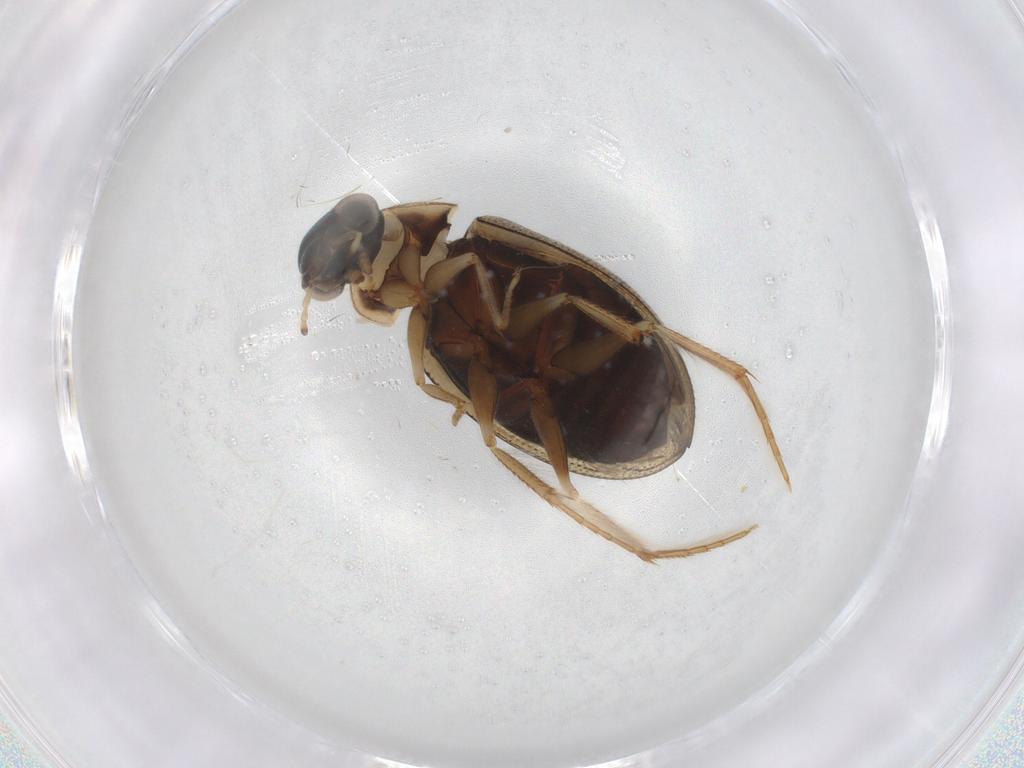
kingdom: Animalia
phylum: Arthropoda
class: Insecta
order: Coleoptera
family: Hydrophilidae
